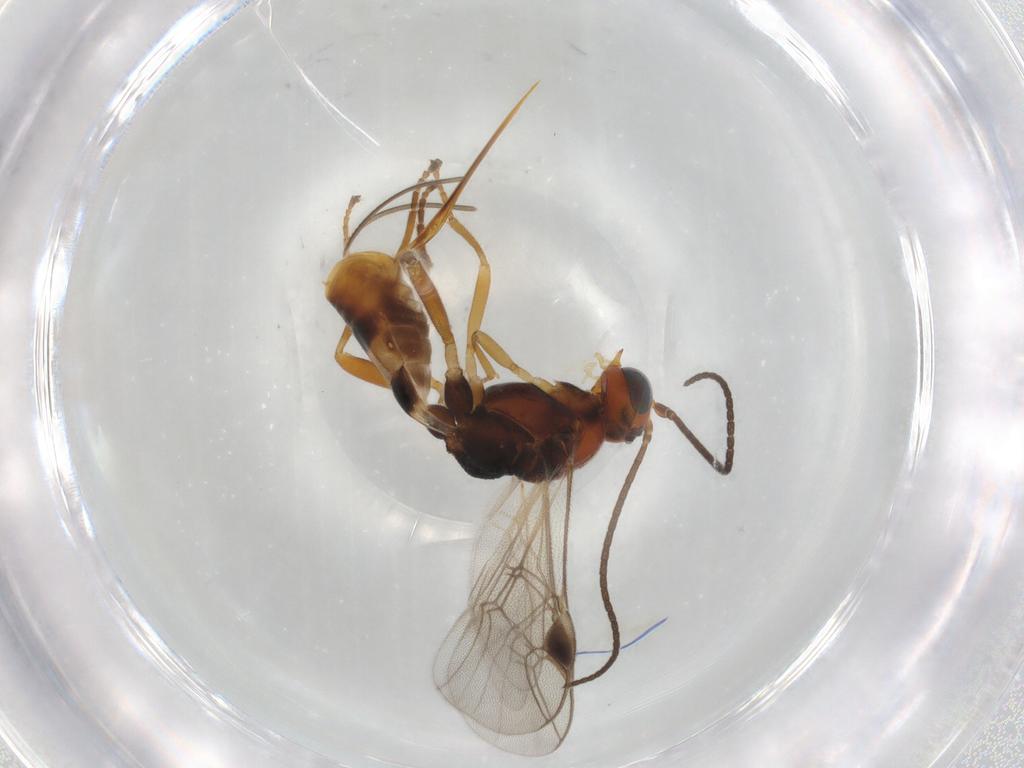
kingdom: Animalia
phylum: Arthropoda
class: Insecta
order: Hymenoptera
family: Braconidae
